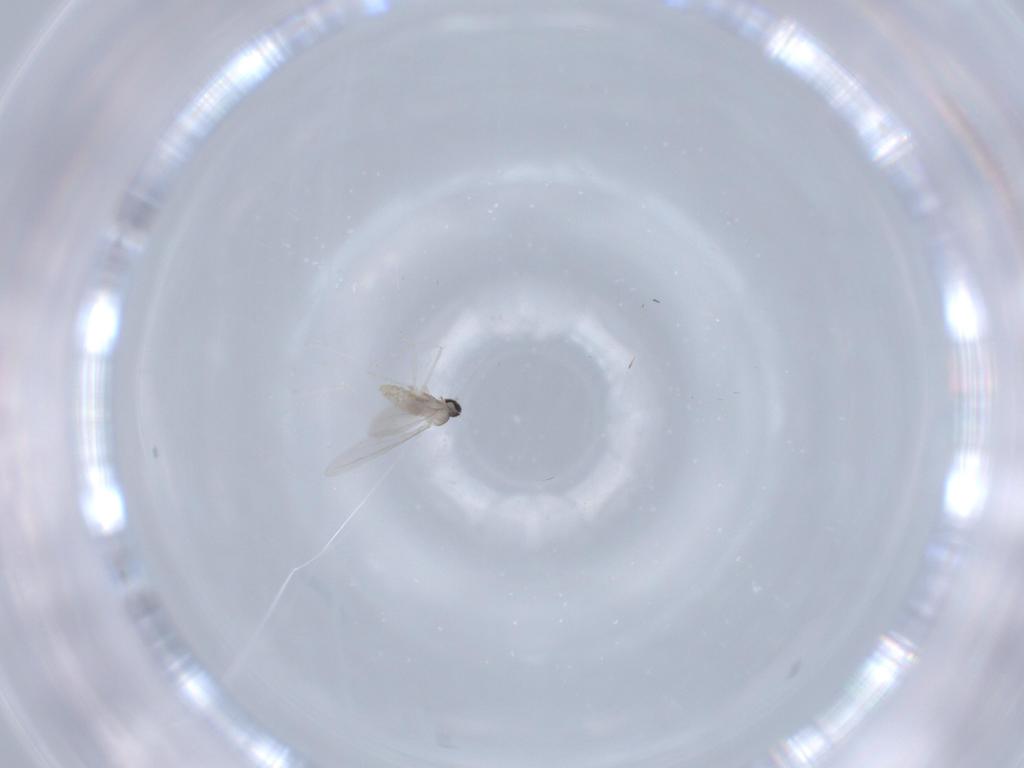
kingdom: Animalia
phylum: Arthropoda
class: Insecta
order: Diptera
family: Cecidomyiidae
